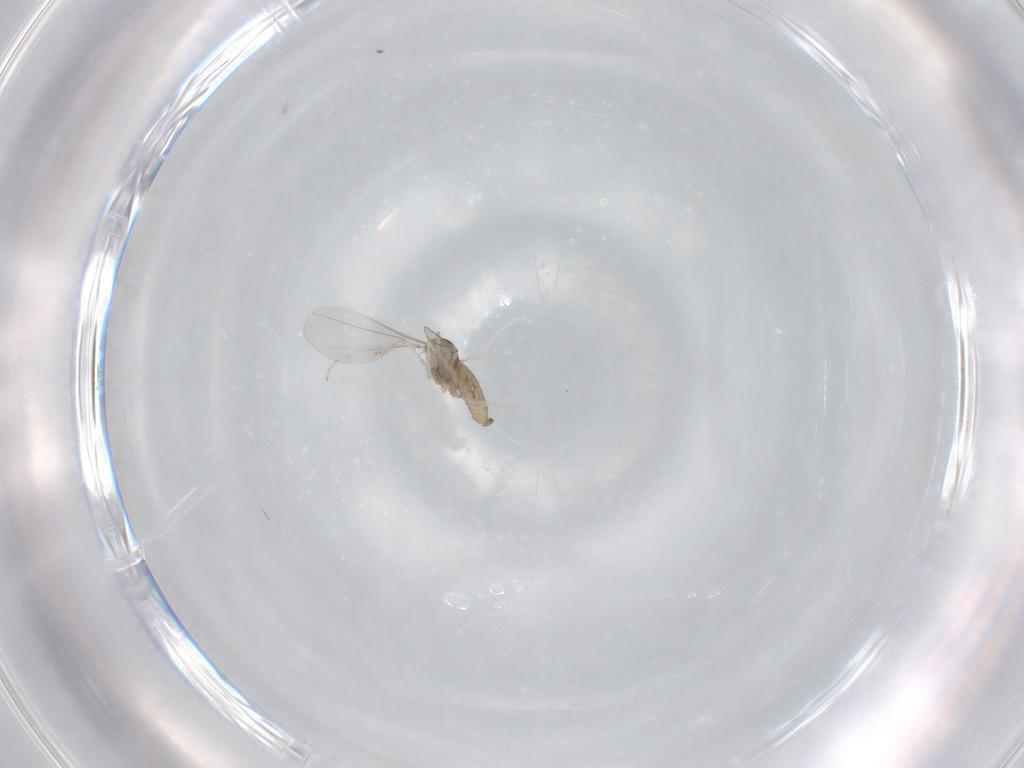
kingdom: Animalia
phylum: Arthropoda
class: Insecta
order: Diptera
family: Cecidomyiidae
